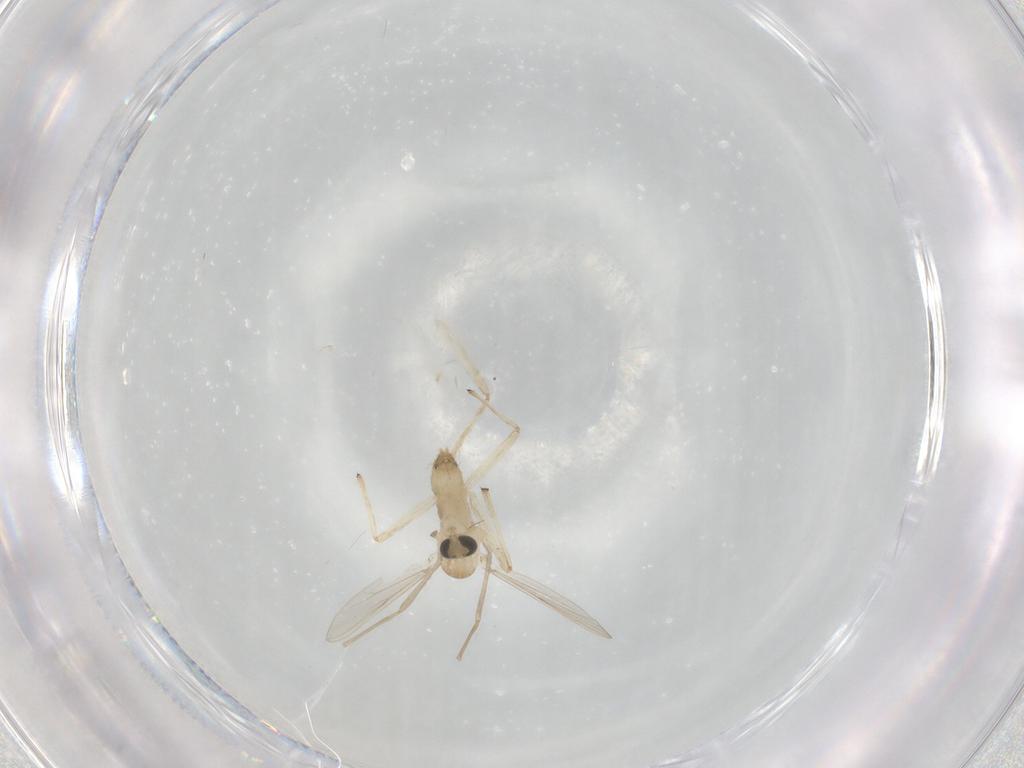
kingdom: Animalia
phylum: Arthropoda
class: Insecta
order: Diptera
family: Chironomidae
